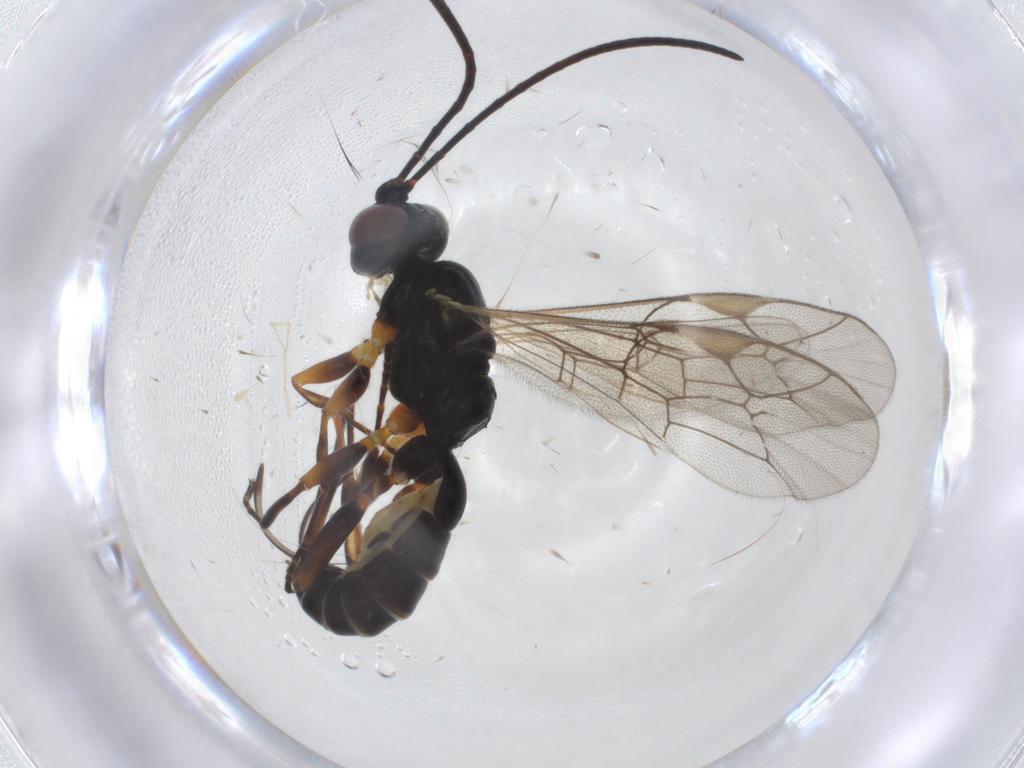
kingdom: Animalia
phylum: Arthropoda
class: Insecta
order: Hymenoptera
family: Ichneumonidae
